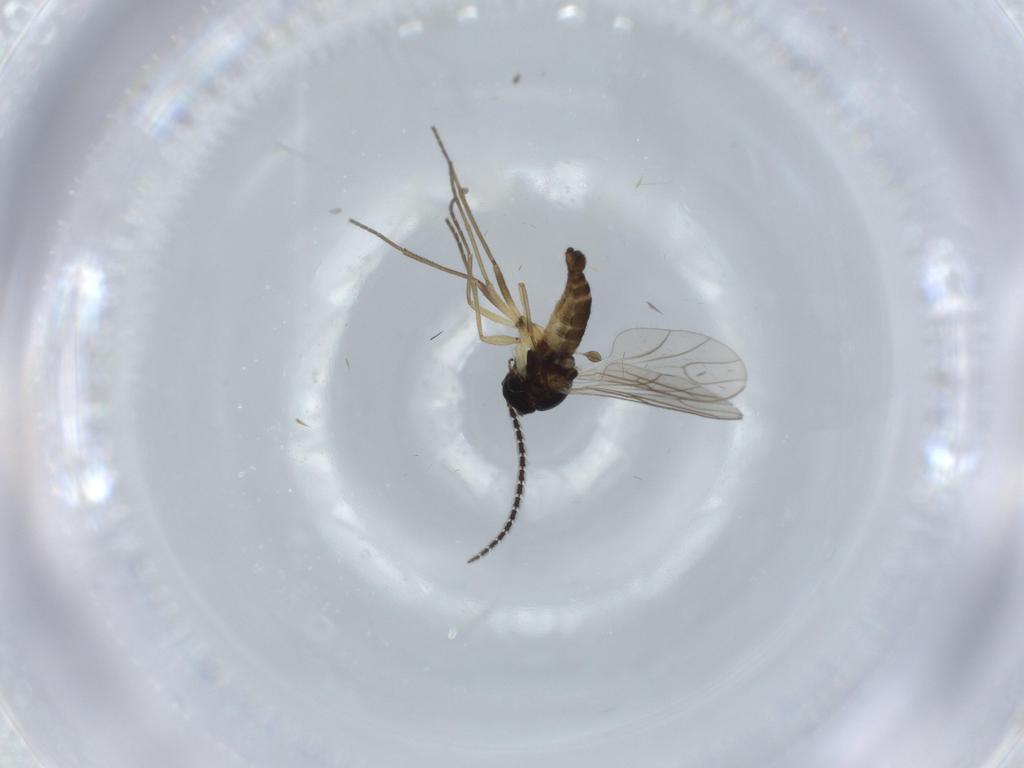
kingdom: Animalia
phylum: Arthropoda
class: Insecta
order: Diptera
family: Sciaridae
